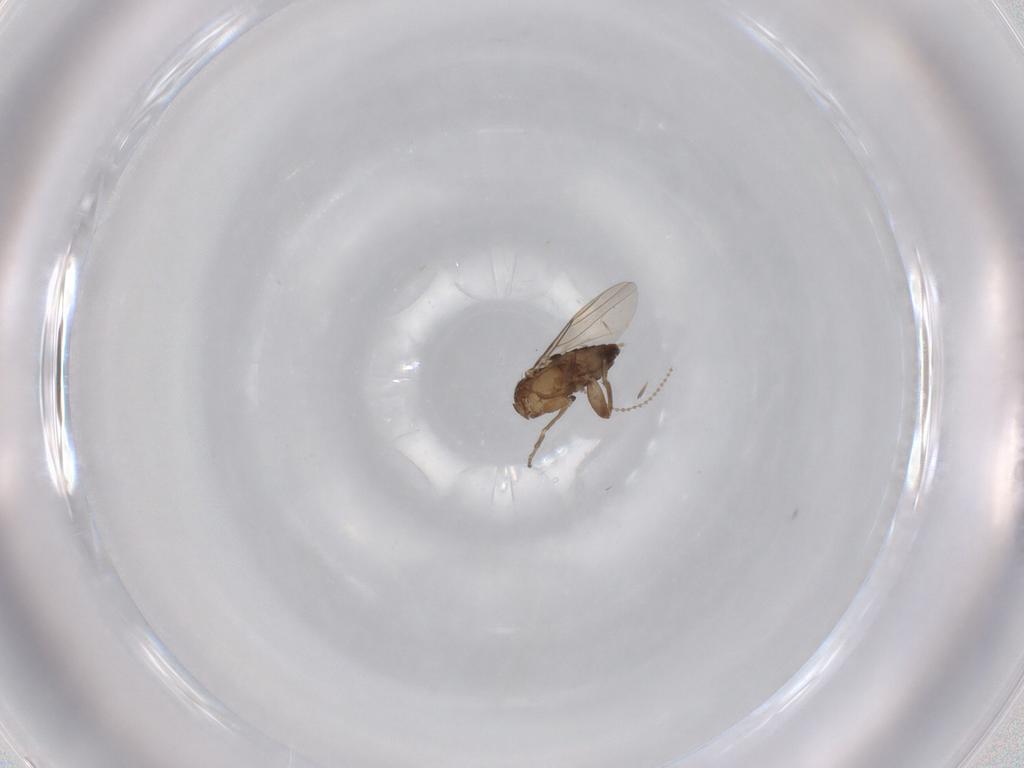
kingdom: Animalia
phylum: Arthropoda
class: Insecta
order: Diptera
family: Phoridae
